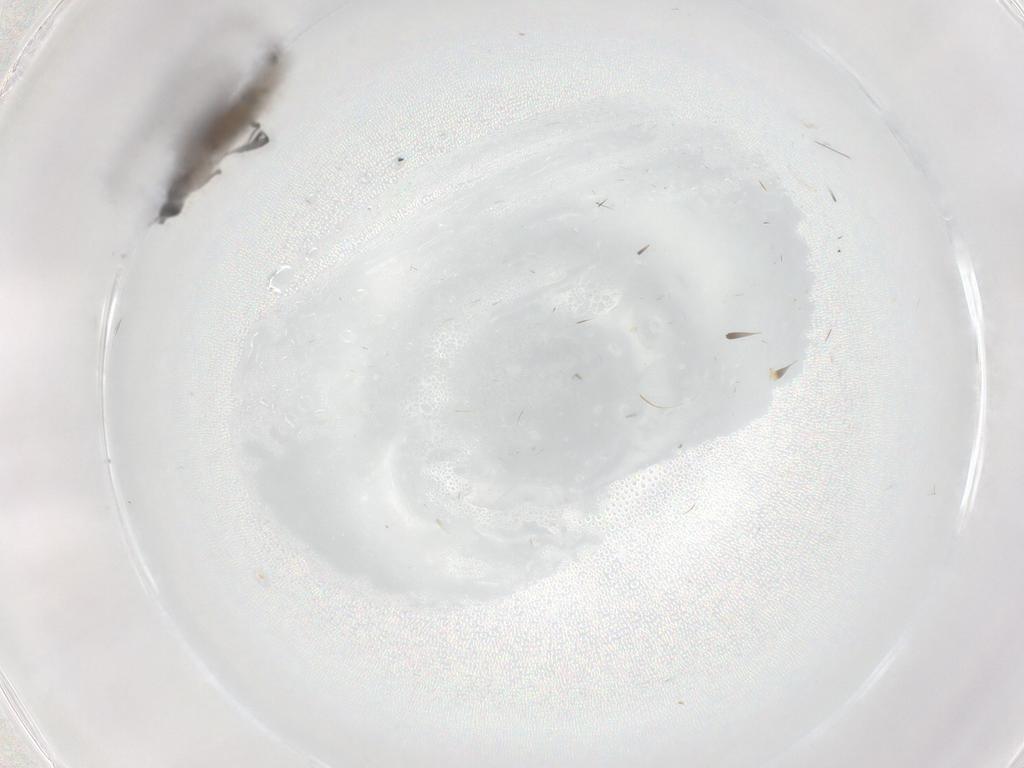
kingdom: Animalia
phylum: Arthropoda
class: Insecta
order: Diptera
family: Sciaridae
